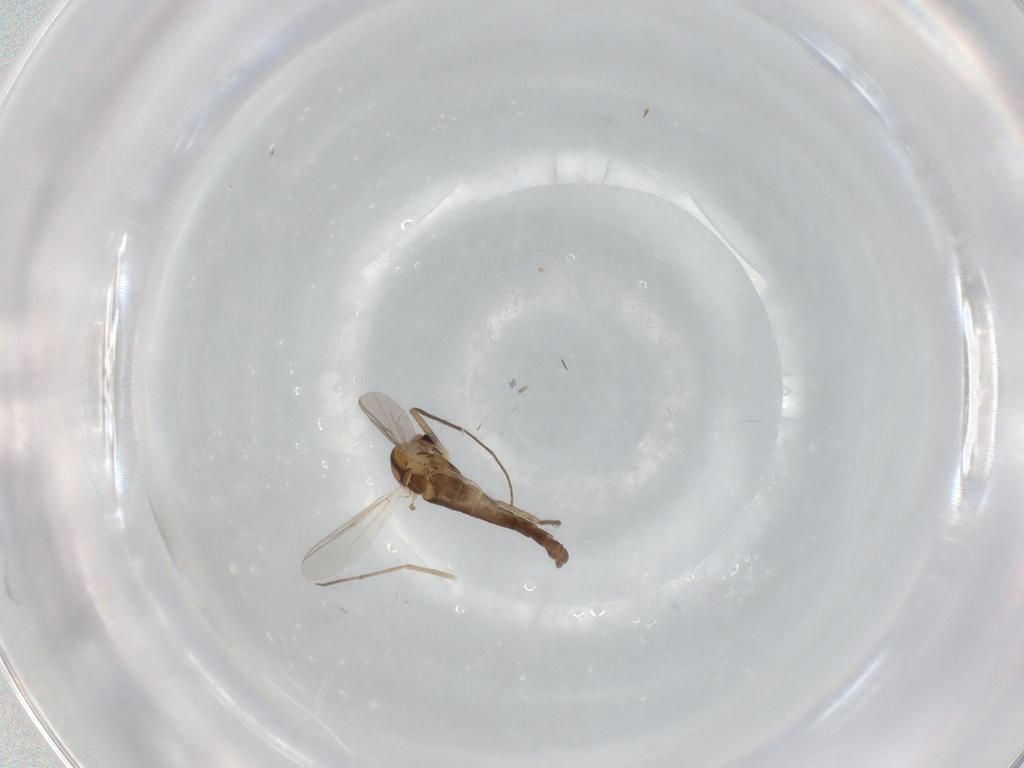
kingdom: Animalia
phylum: Arthropoda
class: Insecta
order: Diptera
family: Chironomidae
